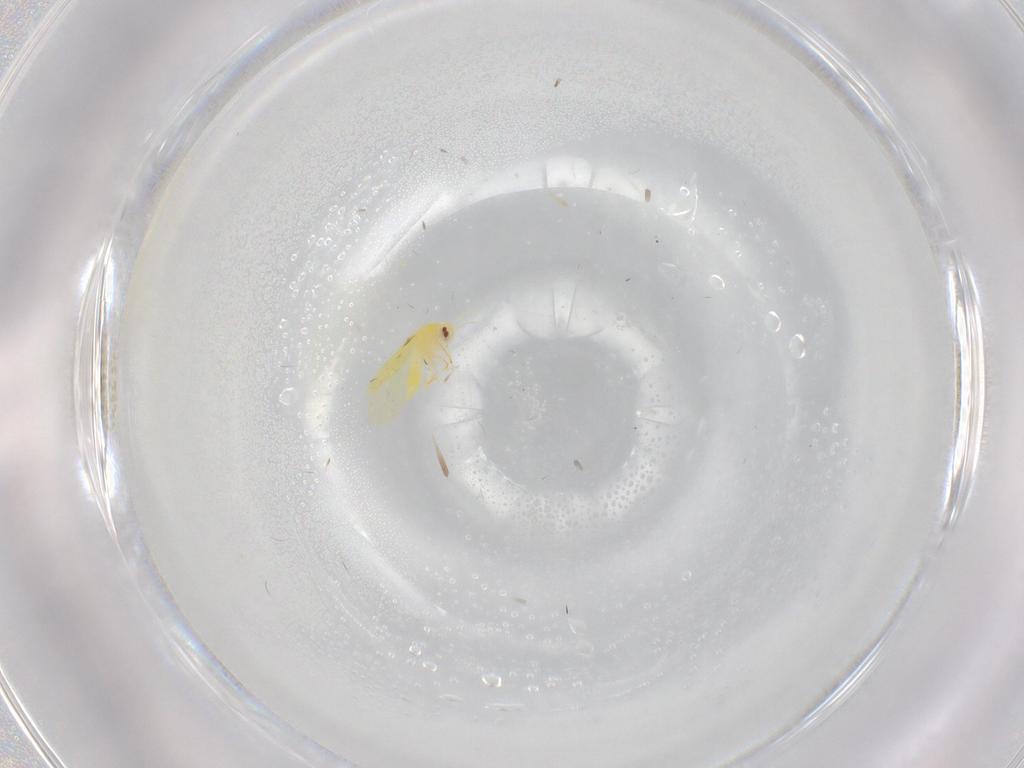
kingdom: Animalia
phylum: Arthropoda
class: Insecta
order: Hemiptera
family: Aleyrodidae
